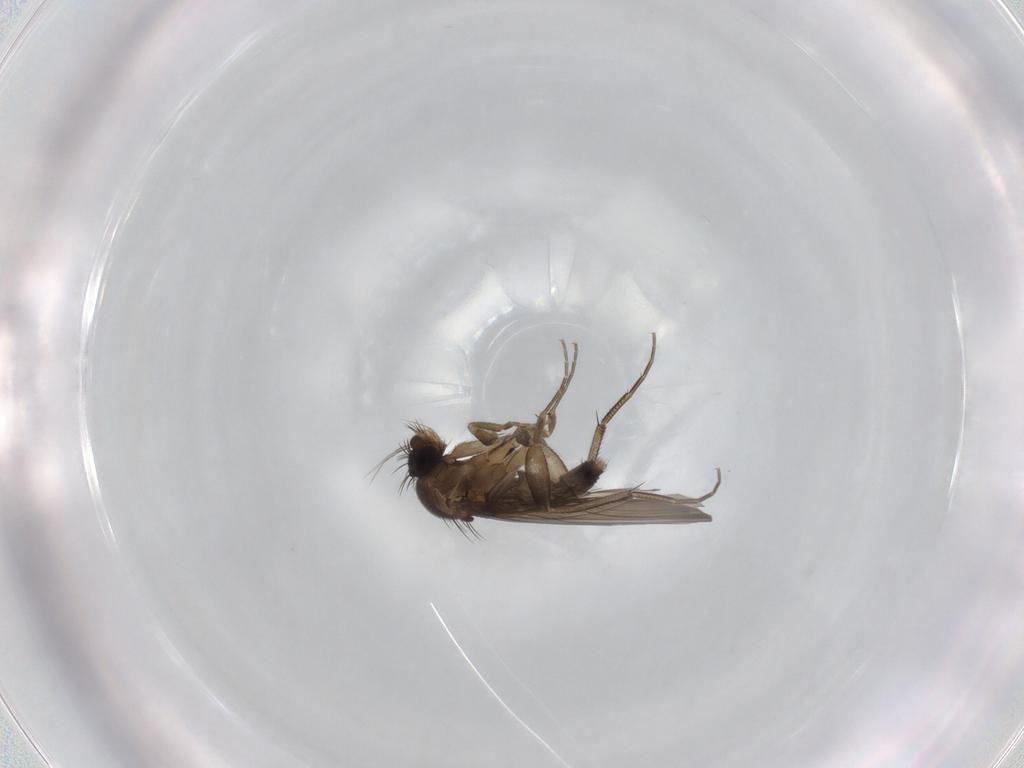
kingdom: Animalia
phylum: Arthropoda
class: Insecta
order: Diptera
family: Phoridae
